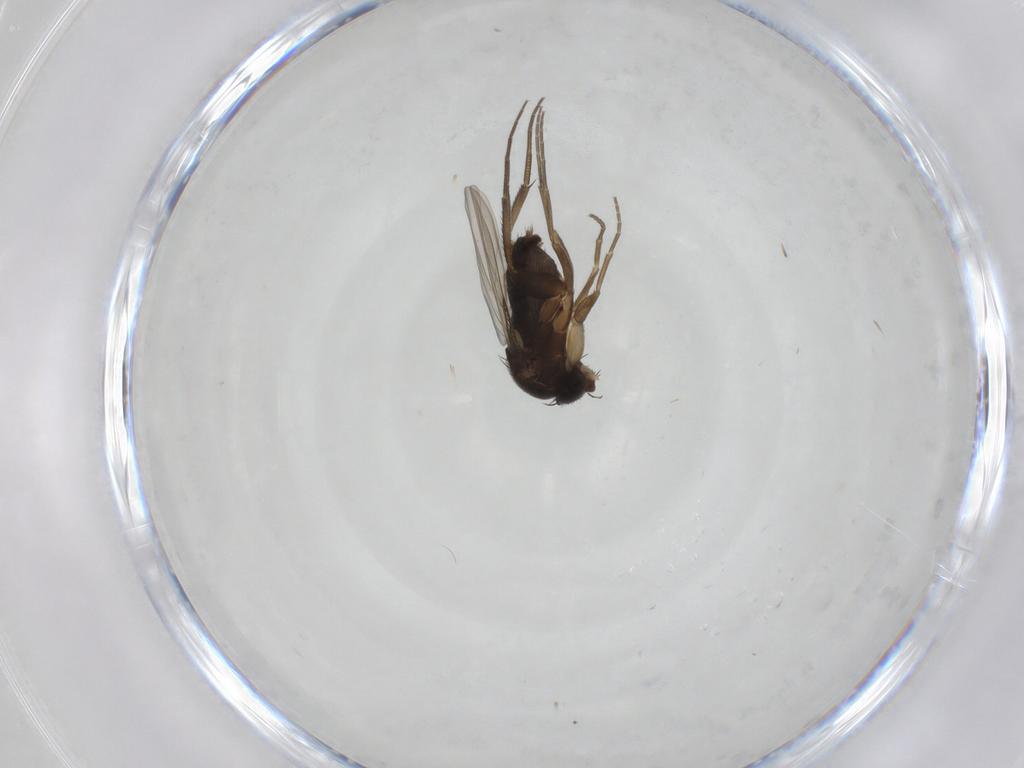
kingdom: Animalia
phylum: Arthropoda
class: Insecta
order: Diptera
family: Phoridae
